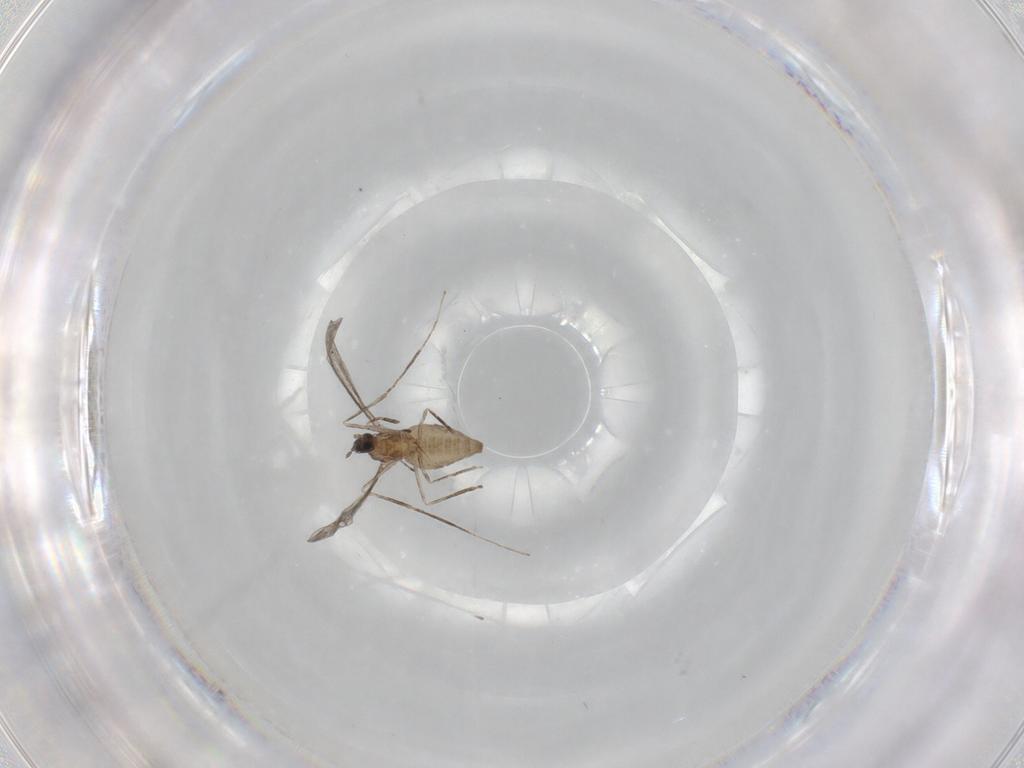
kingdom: Animalia
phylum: Arthropoda
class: Insecta
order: Diptera
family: Cecidomyiidae
